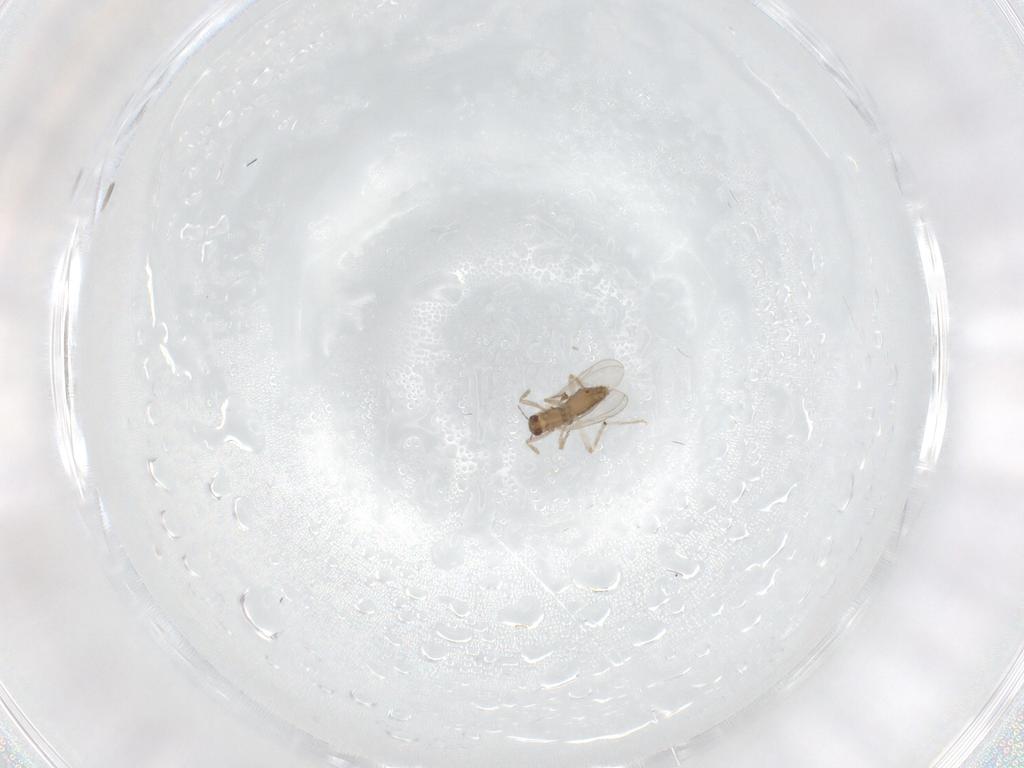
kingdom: Animalia
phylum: Arthropoda
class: Insecta
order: Diptera
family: Chironomidae
